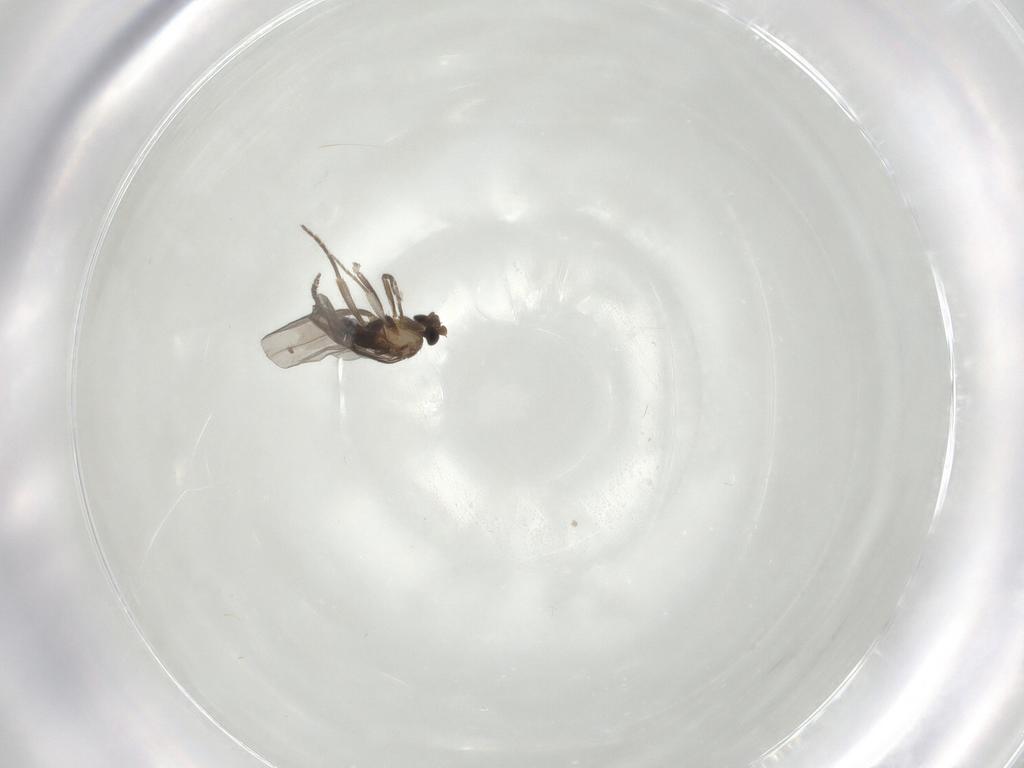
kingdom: Animalia
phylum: Arthropoda
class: Insecta
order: Diptera
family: Phoridae
